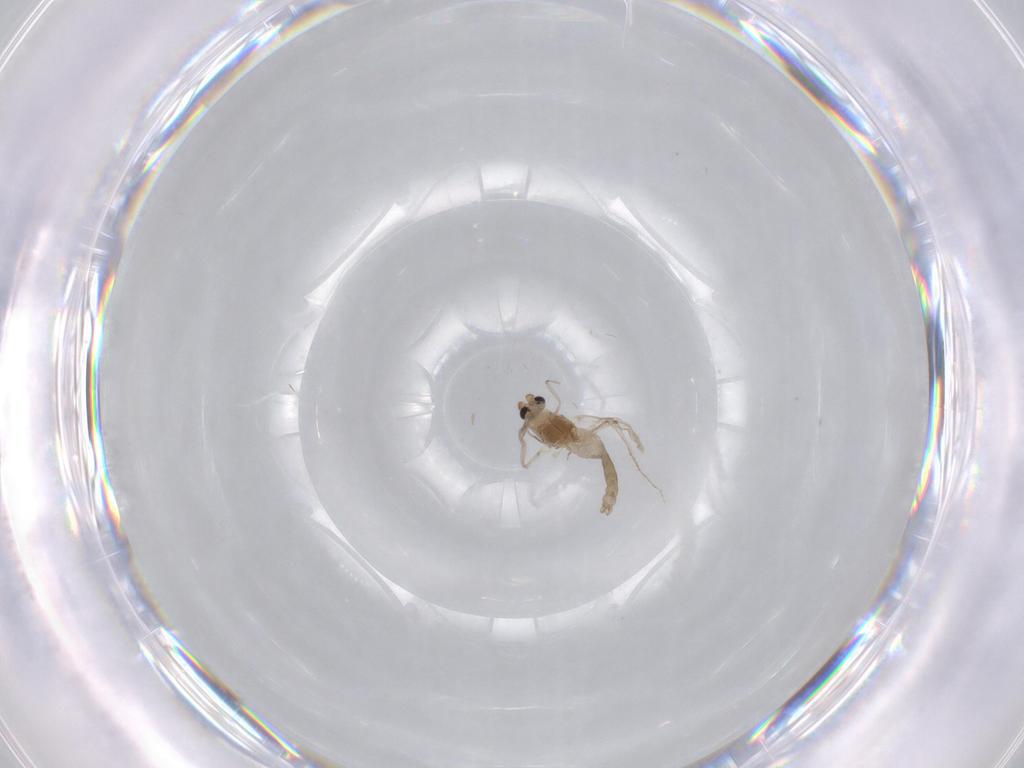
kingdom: Animalia
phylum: Arthropoda
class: Insecta
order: Diptera
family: Chironomidae
